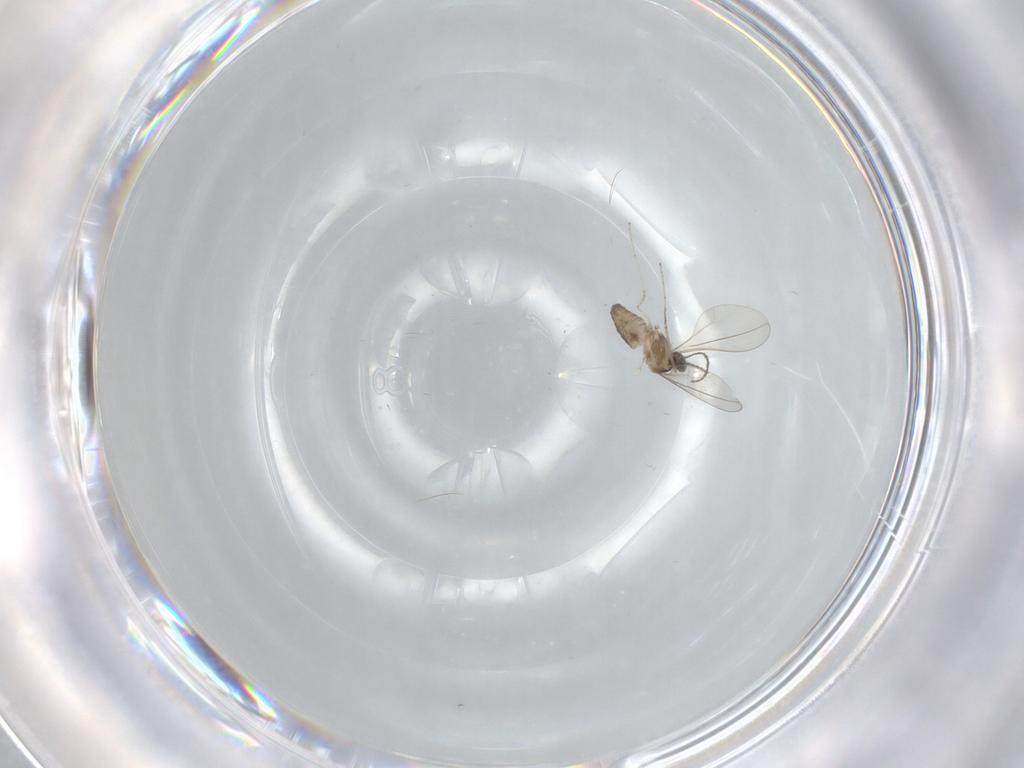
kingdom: Animalia
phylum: Arthropoda
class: Insecta
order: Diptera
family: Cecidomyiidae
